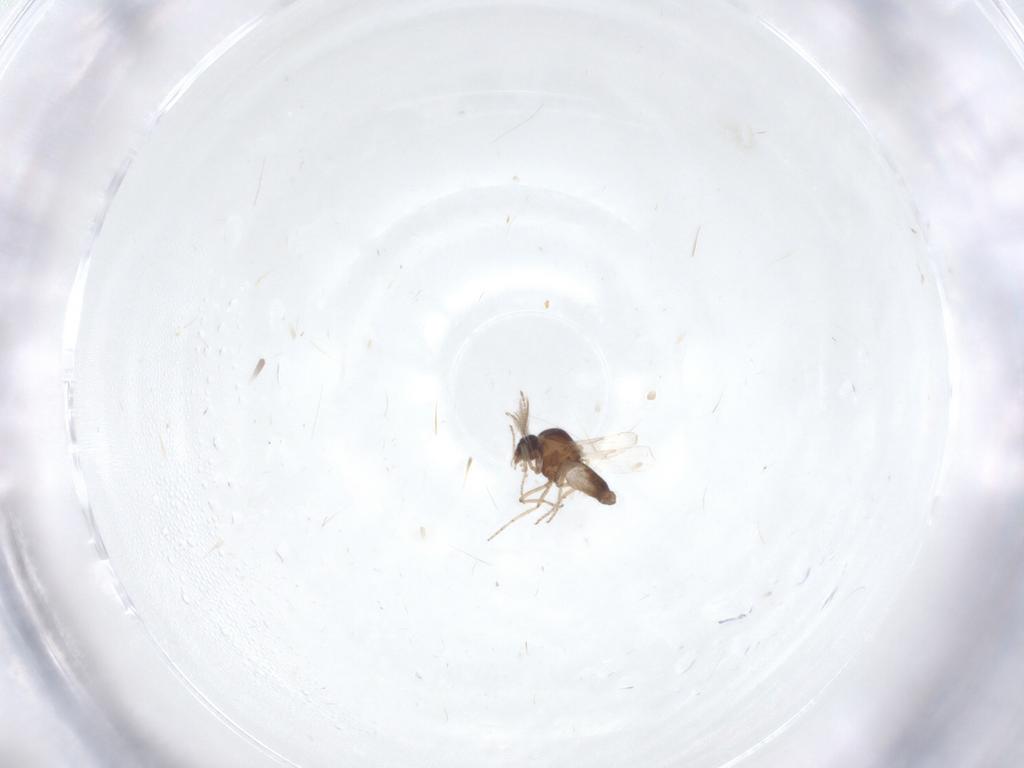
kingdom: Animalia
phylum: Arthropoda
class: Insecta
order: Diptera
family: Ceratopogonidae
